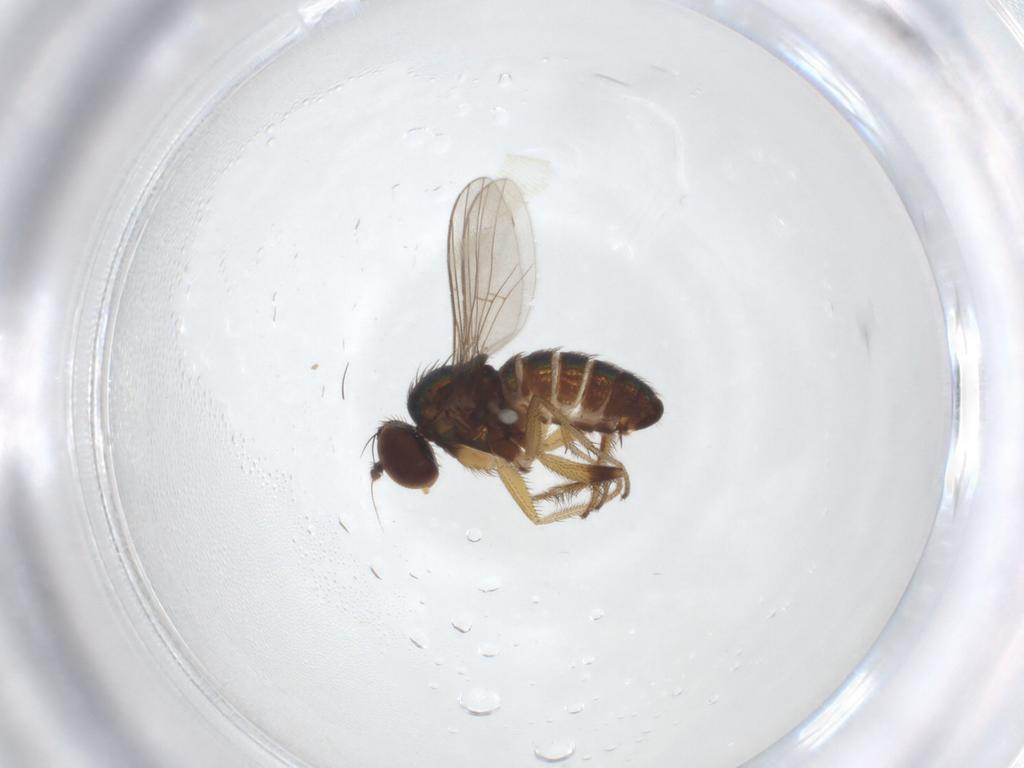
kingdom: Animalia
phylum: Arthropoda
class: Insecta
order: Diptera
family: Dolichopodidae
